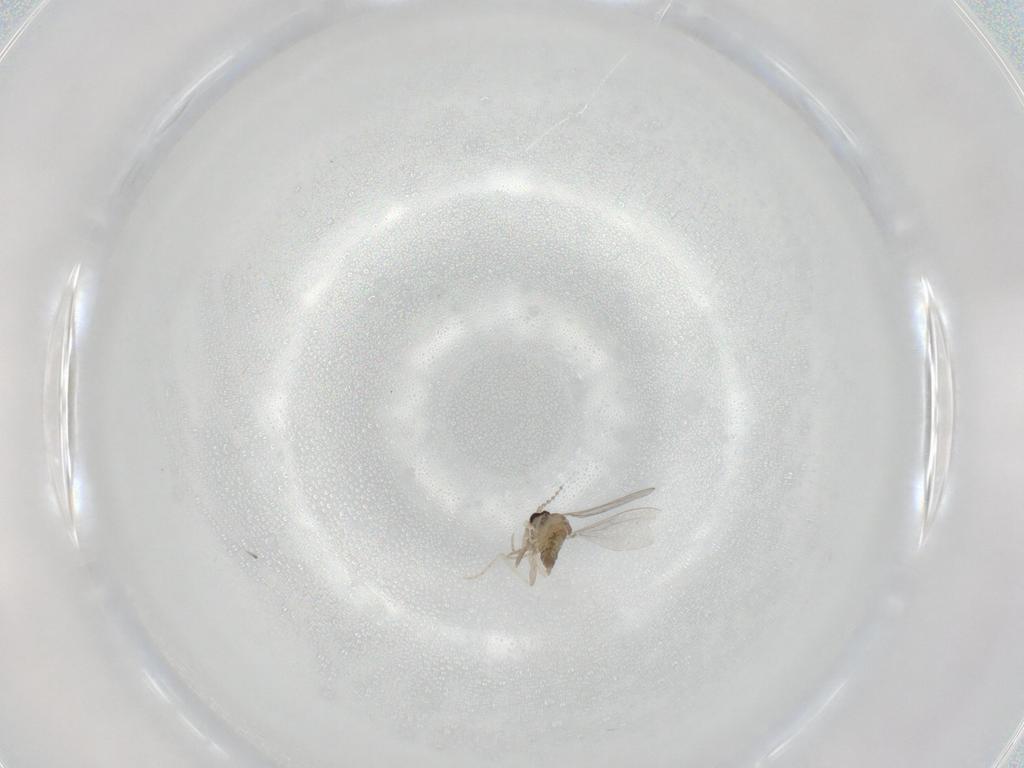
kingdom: Animalia
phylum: Arthropoda
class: Insecta
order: Diptera
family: Cecidomyiidae
